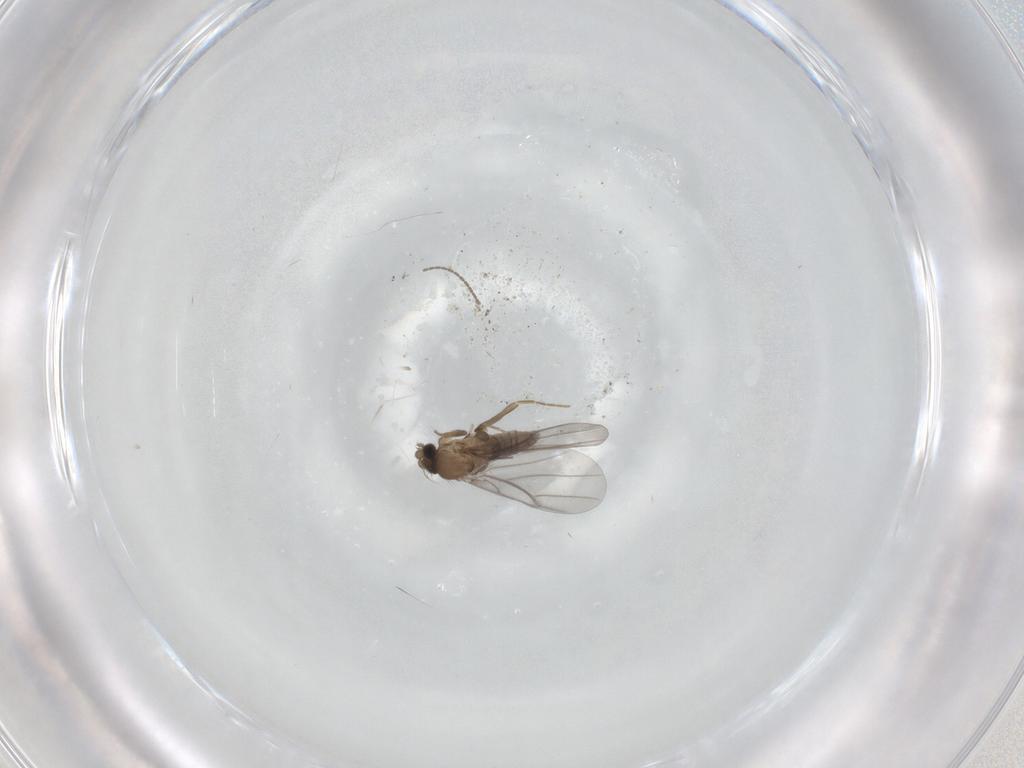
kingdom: Animalia
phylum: Arthropoda
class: Insecta
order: Diptera
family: Cecidomyiidae
